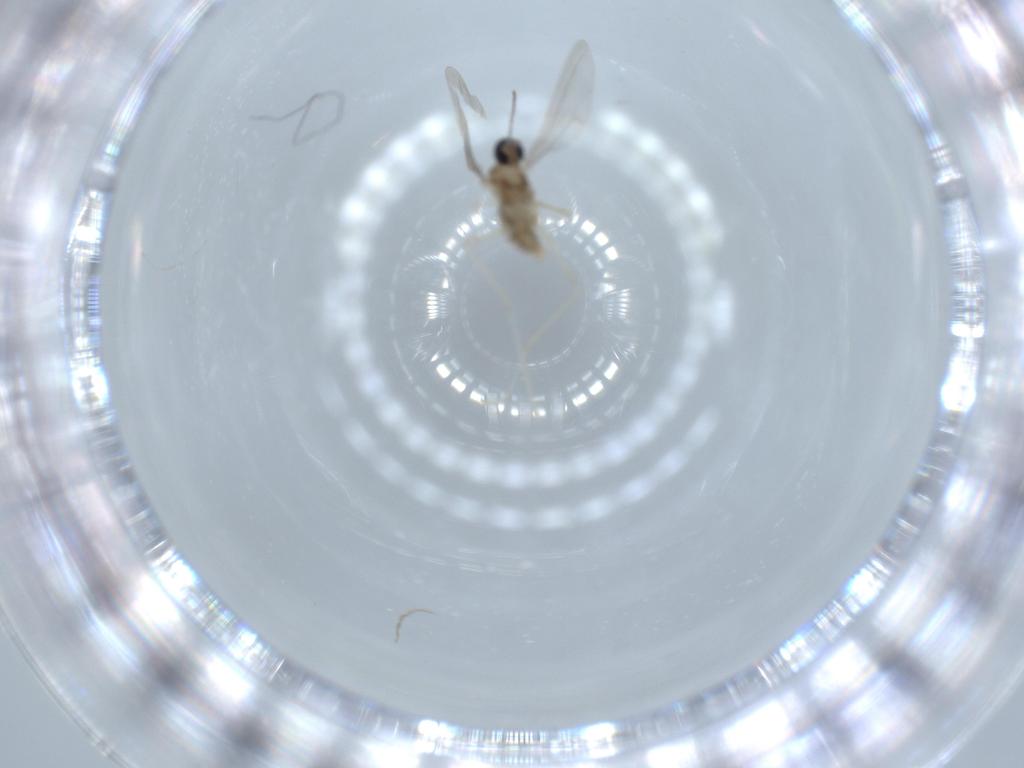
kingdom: Animalia
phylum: Arthropoda
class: Insecta
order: Diptera
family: Cecidomyiidae
